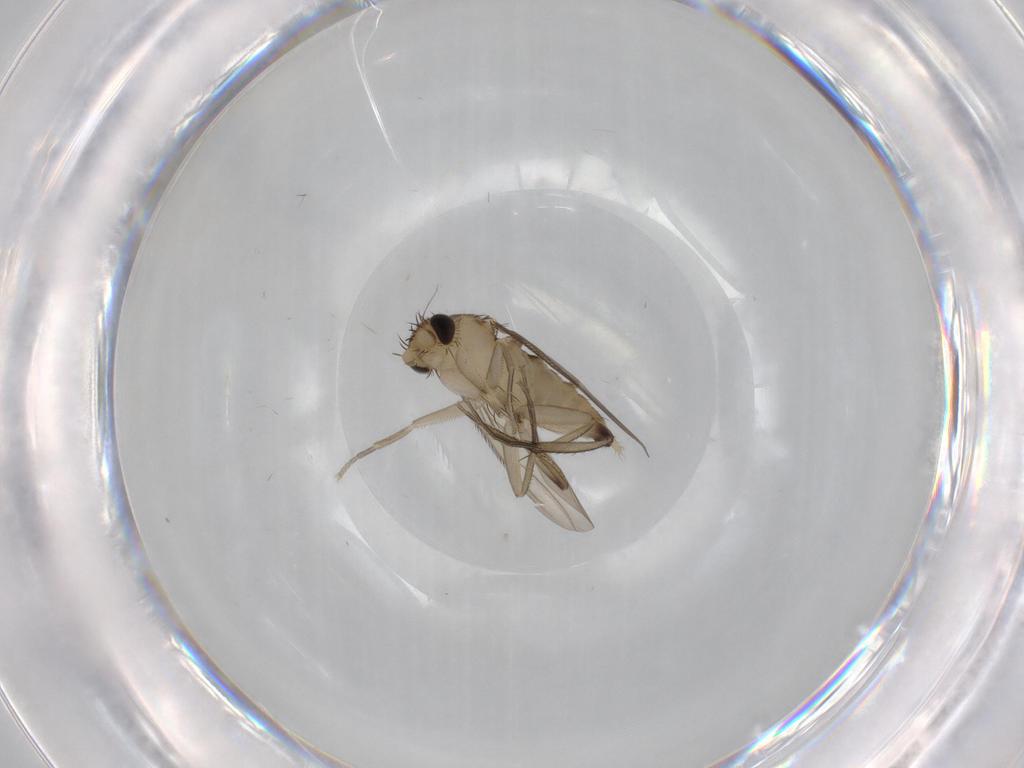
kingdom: Animalia
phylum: Arthropoda
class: Insecta
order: Diptera
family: Phoridae
